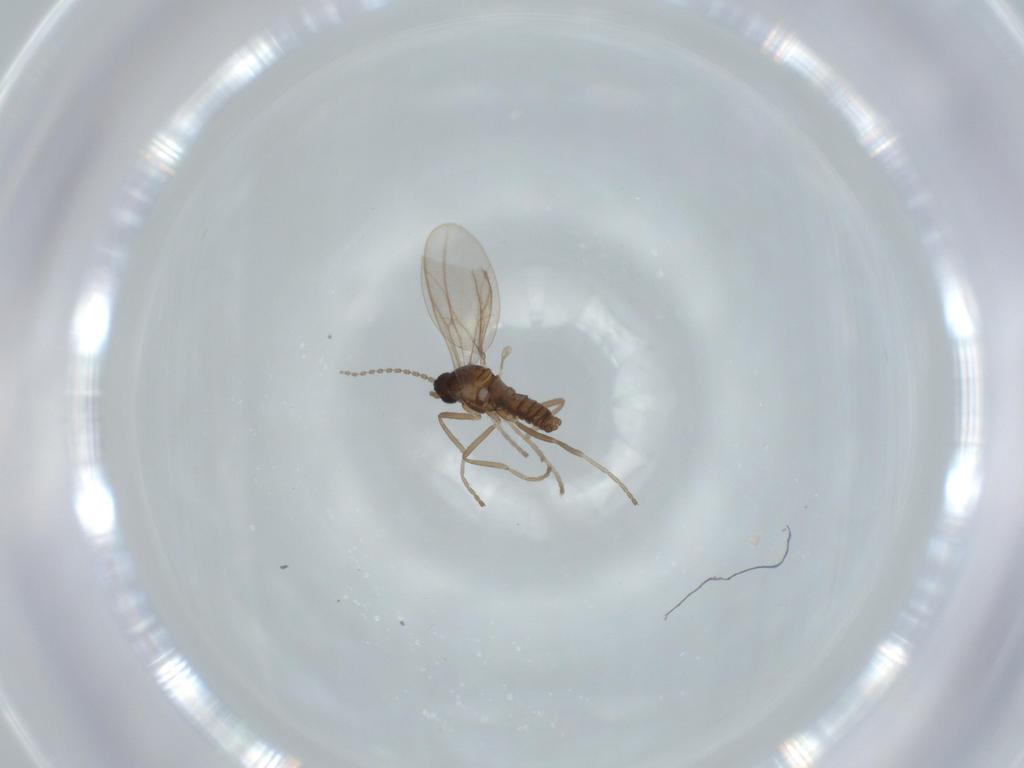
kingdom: Animalia
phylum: Arthropoda
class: Insecta
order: Diptera
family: Cecidomyiidae
